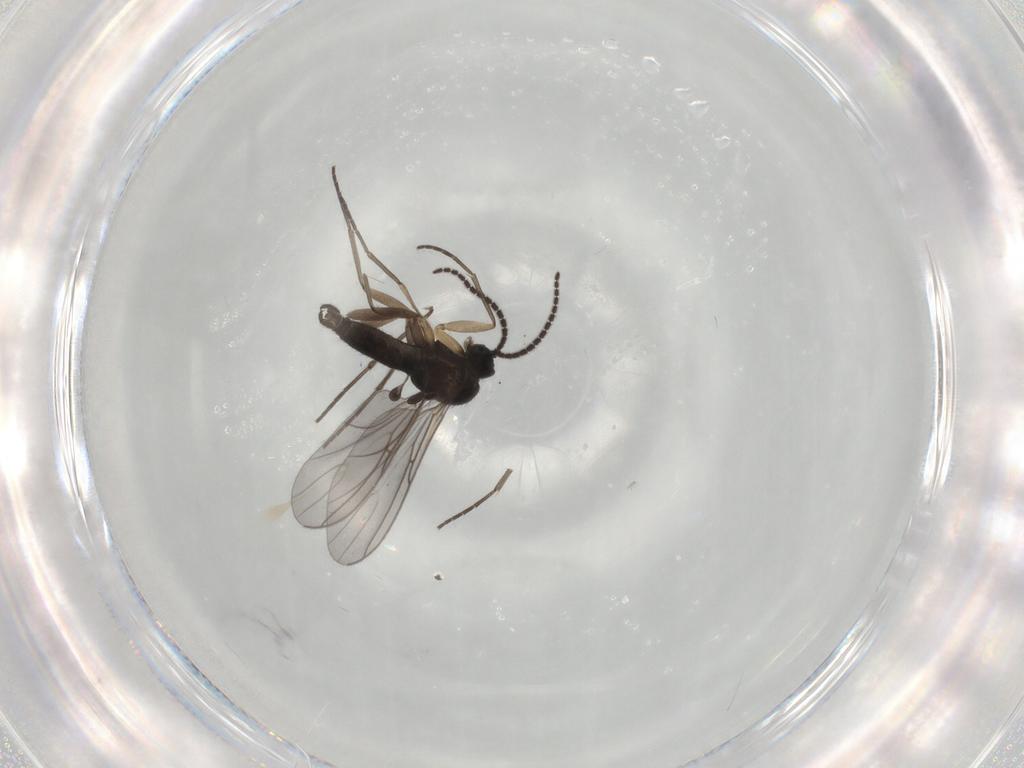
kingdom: Animalia
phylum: Arthropoda
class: Insecta
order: Diptera
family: Sciaridae
